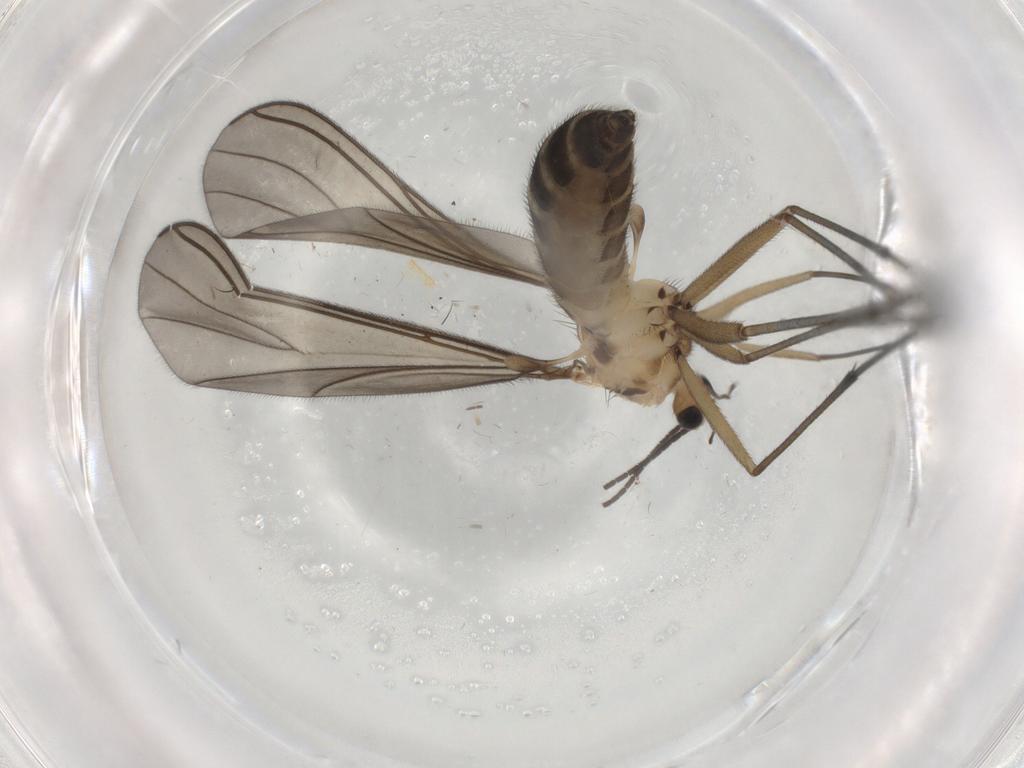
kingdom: Animalia
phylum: Arthropoda
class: Insecta
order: Diptera
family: Sciaridae
